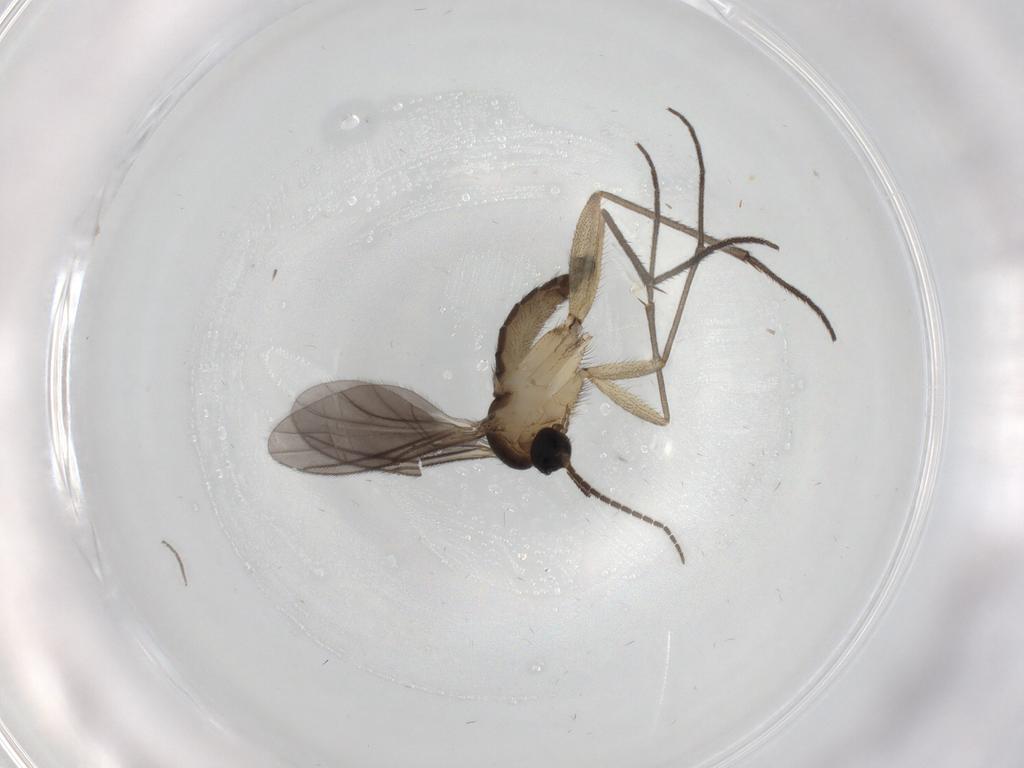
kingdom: Animalia
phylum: Arthropoda
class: Insecta
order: Diptera
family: Sciaridae
